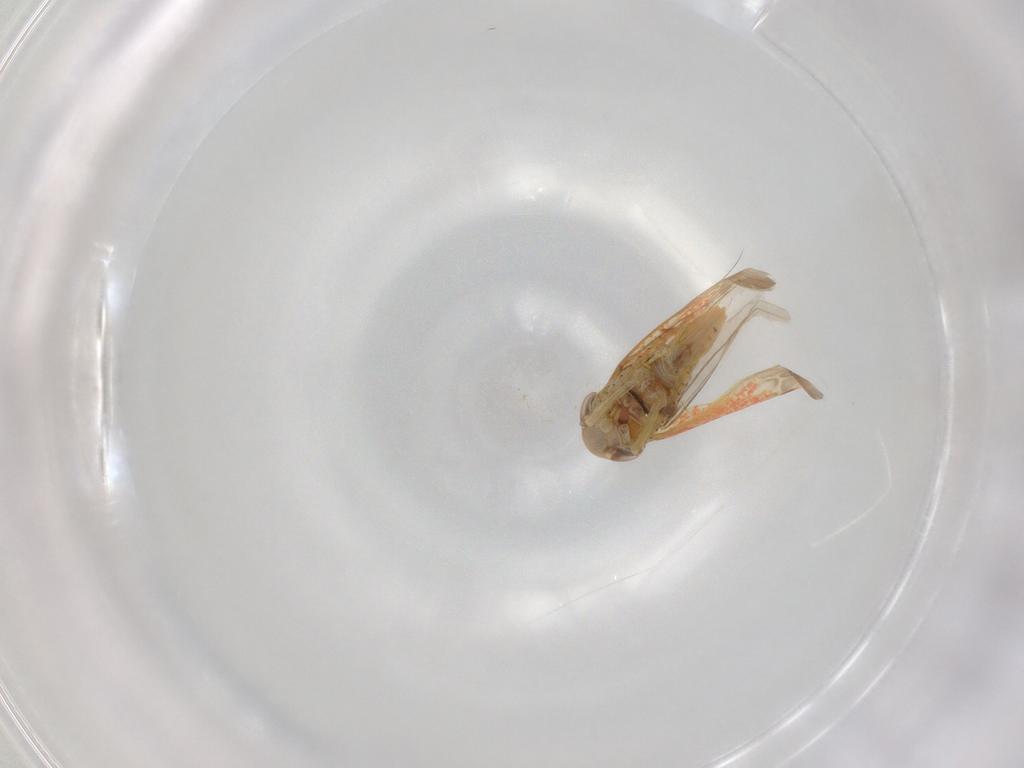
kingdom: Animalia
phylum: Arthropoda
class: Insecta
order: Hemiptera
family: Cicadellidae
